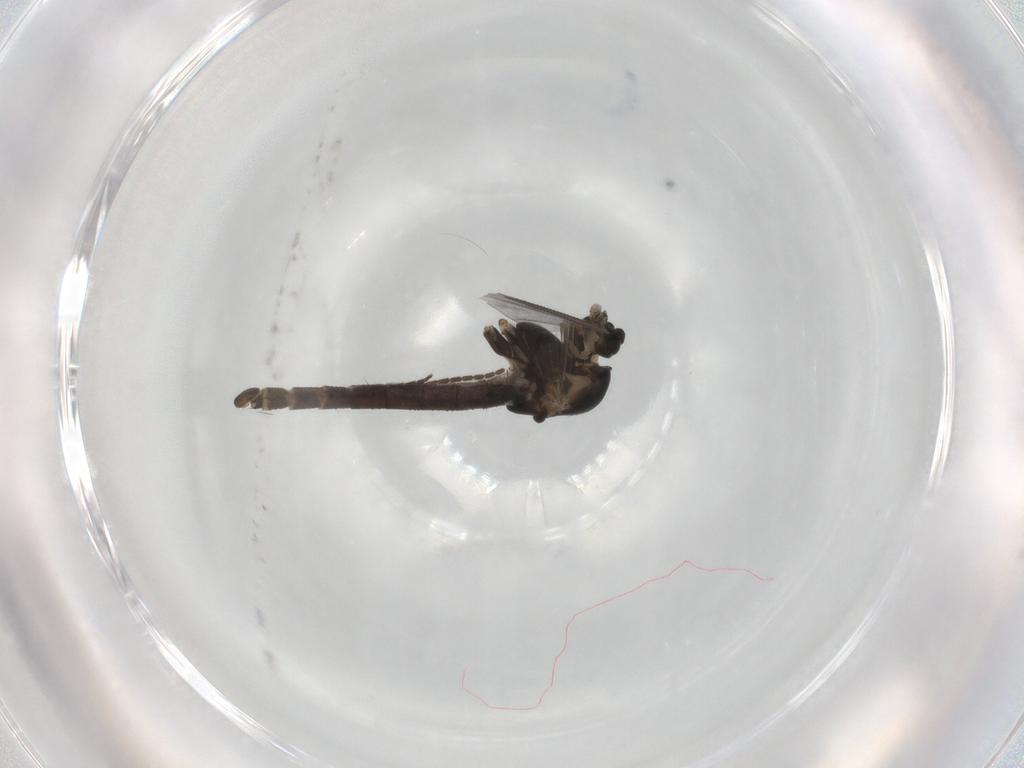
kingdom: Animalia
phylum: Arthropoda
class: Insecta
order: Diptera
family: Chironomidae
